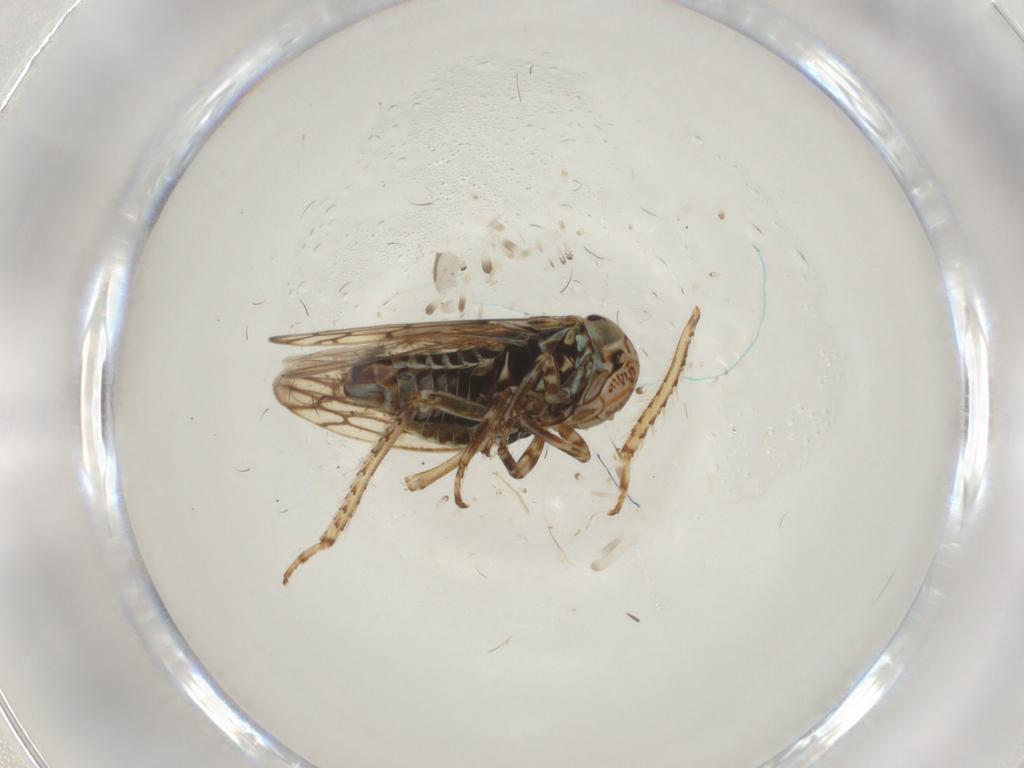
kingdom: Animalia
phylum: Arthropoda
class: Insecta
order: Hemiptera
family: Cicadellidae
